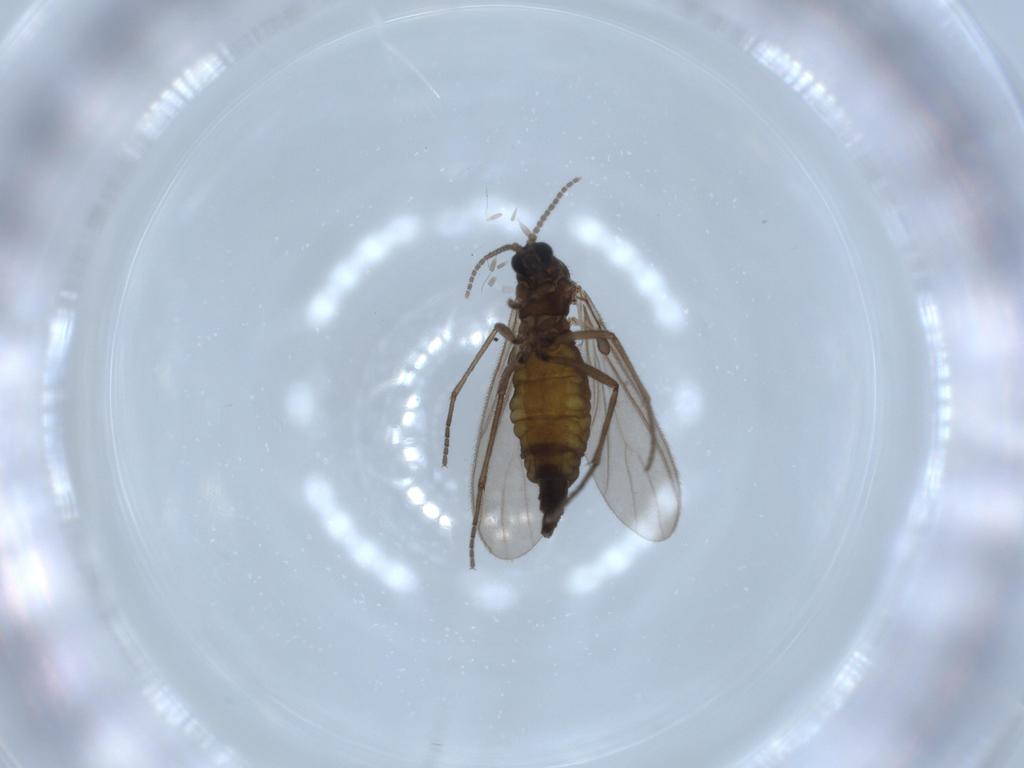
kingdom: Animalia
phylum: Arthropoda
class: Insecta
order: Diptera
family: Sciaridae
